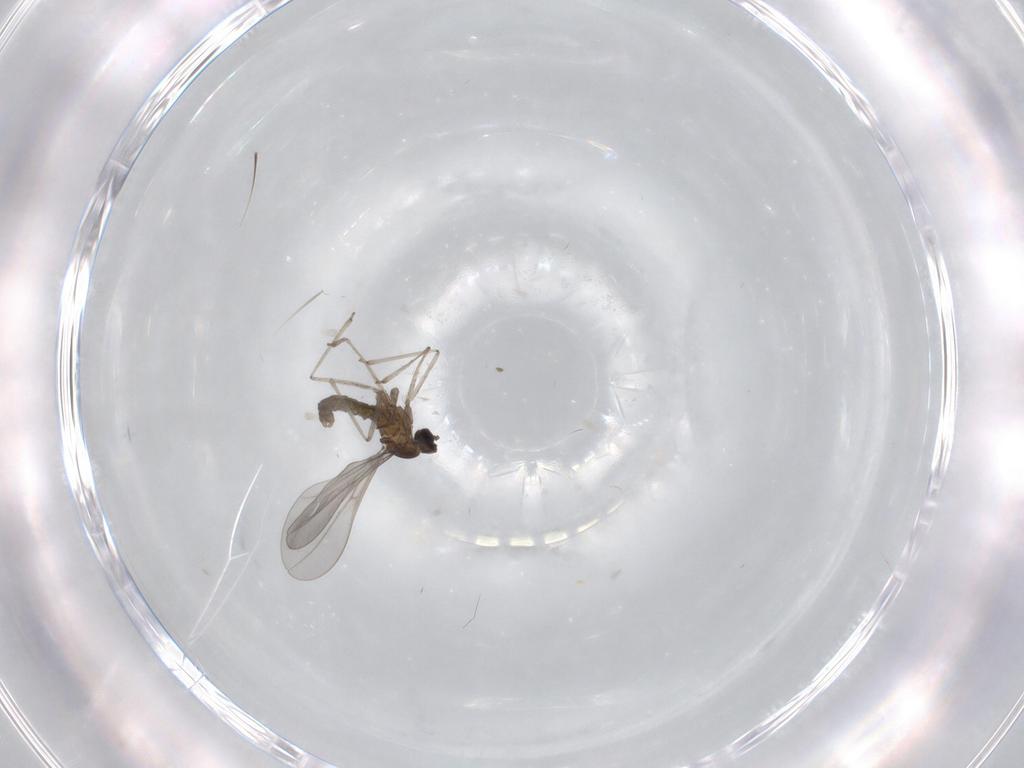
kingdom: Animalia
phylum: Arthropoda
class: Insecta
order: Diptera
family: Cecidomyiidae
